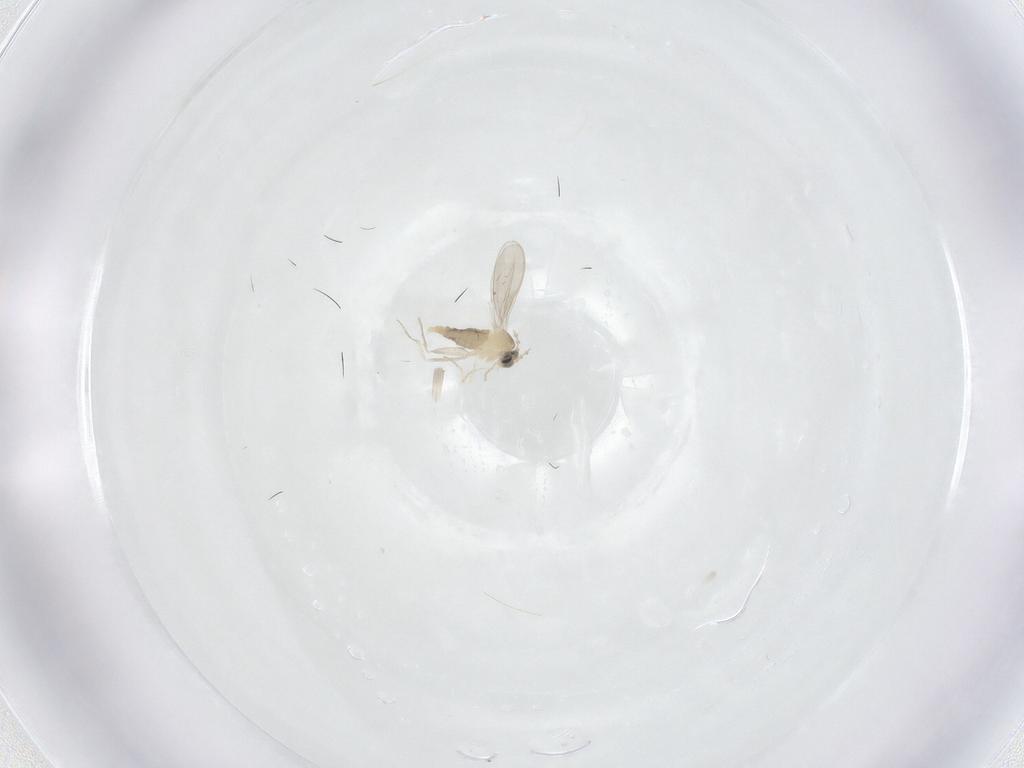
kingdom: Animalia
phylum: Arthropoda
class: Insecta
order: Diptera
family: Cecidomyiidae
